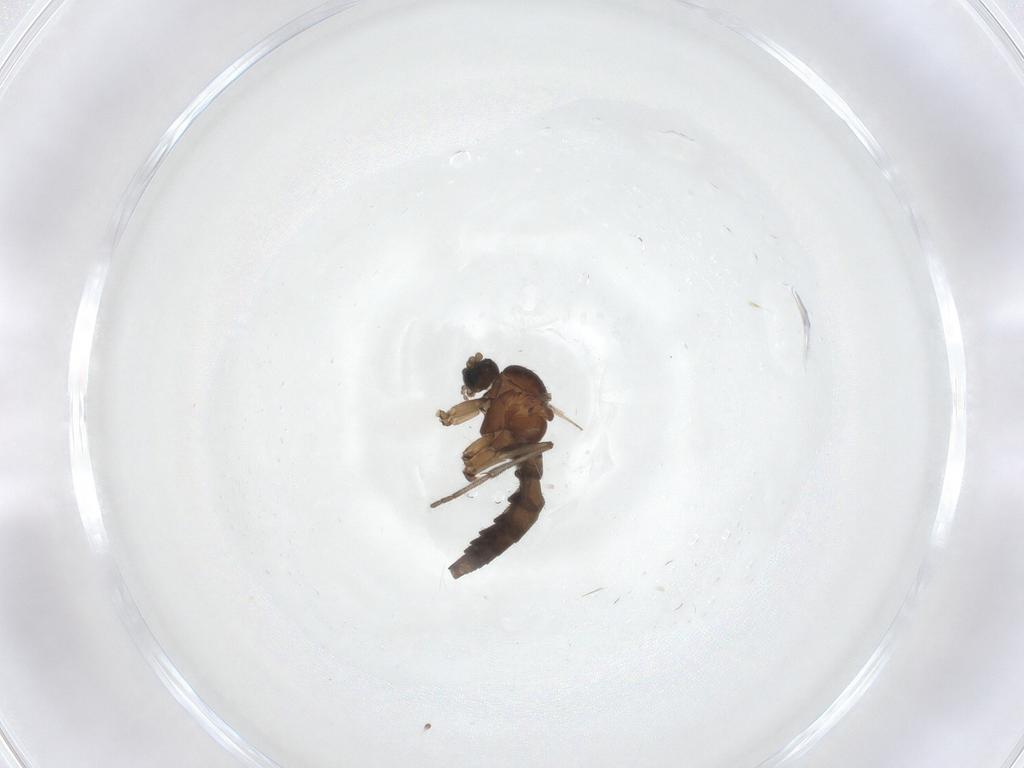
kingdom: Animalia
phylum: Arthropoda
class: Insecta
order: Diptera
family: Sciaridae
